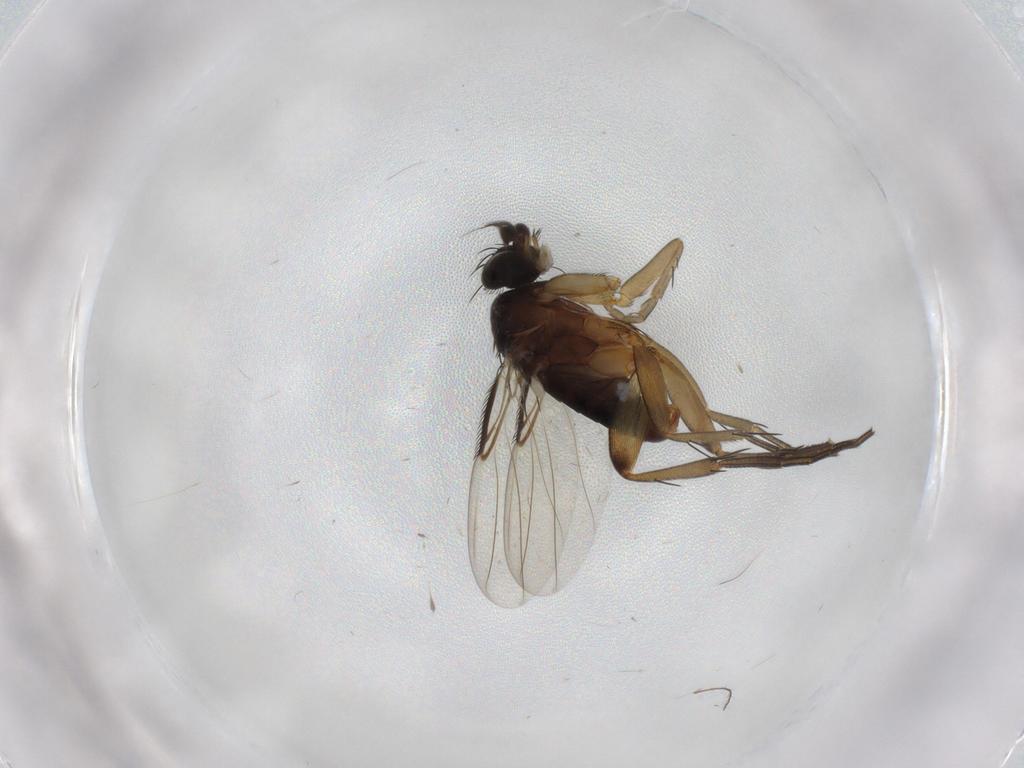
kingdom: Animalia
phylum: Arthropoda
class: Insecta
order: Diptera
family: Phoridae
